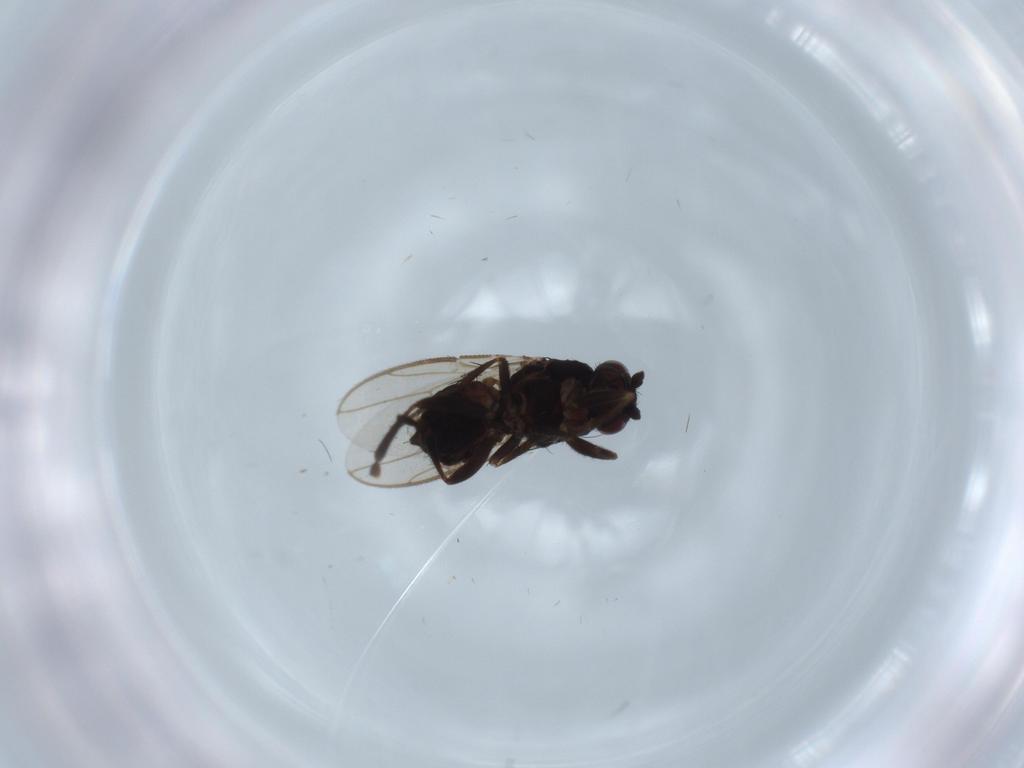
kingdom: Animalia
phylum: Arthropoda
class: Insecta
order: Diptera
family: Sphaeroceridae
